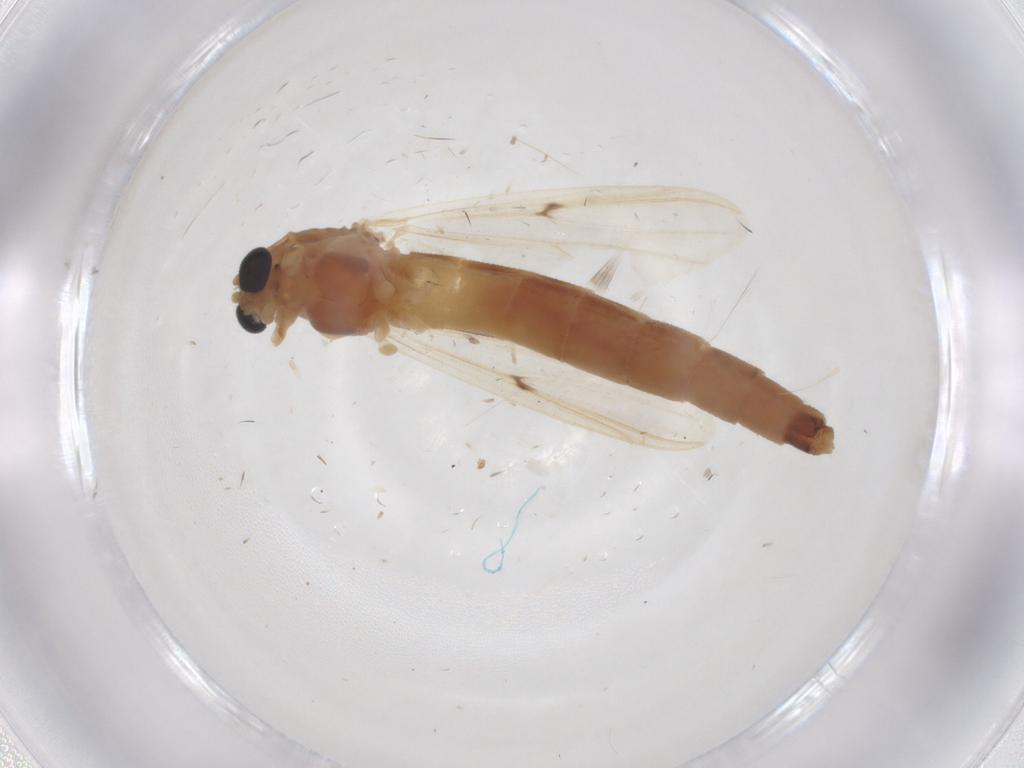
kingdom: Animalia
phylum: Arthropoda
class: Insecta
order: Diptera
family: Chironomidae
